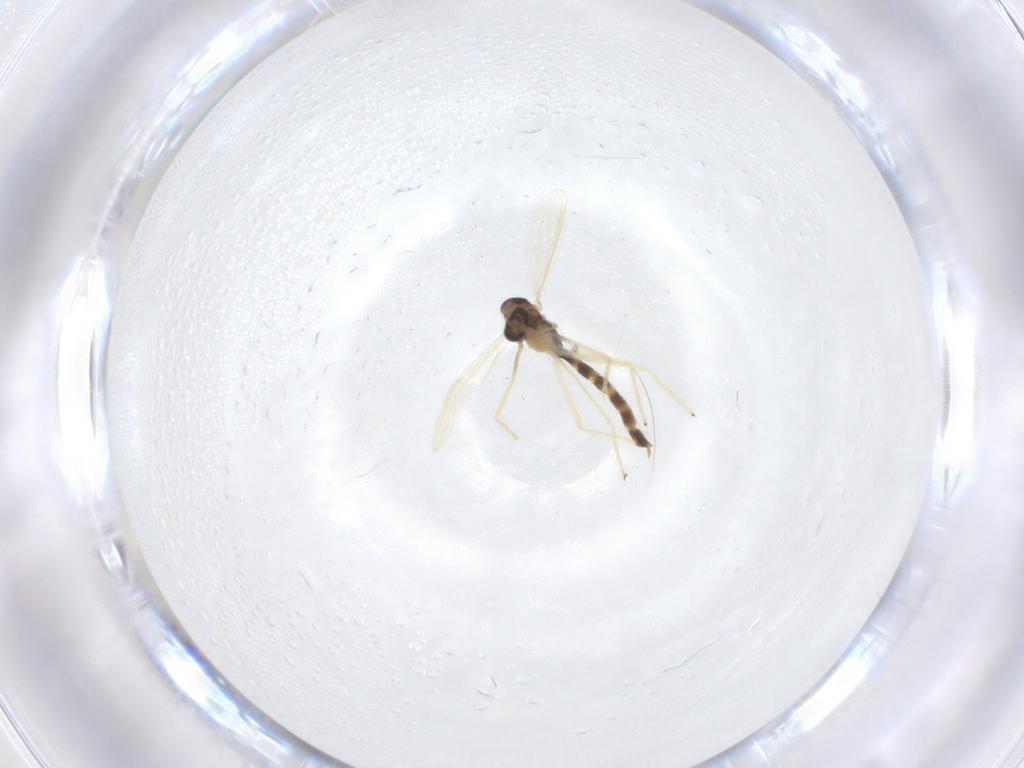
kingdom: Animalia
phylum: Arthropoda
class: Insecta
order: Diptera
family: Chironomidae
